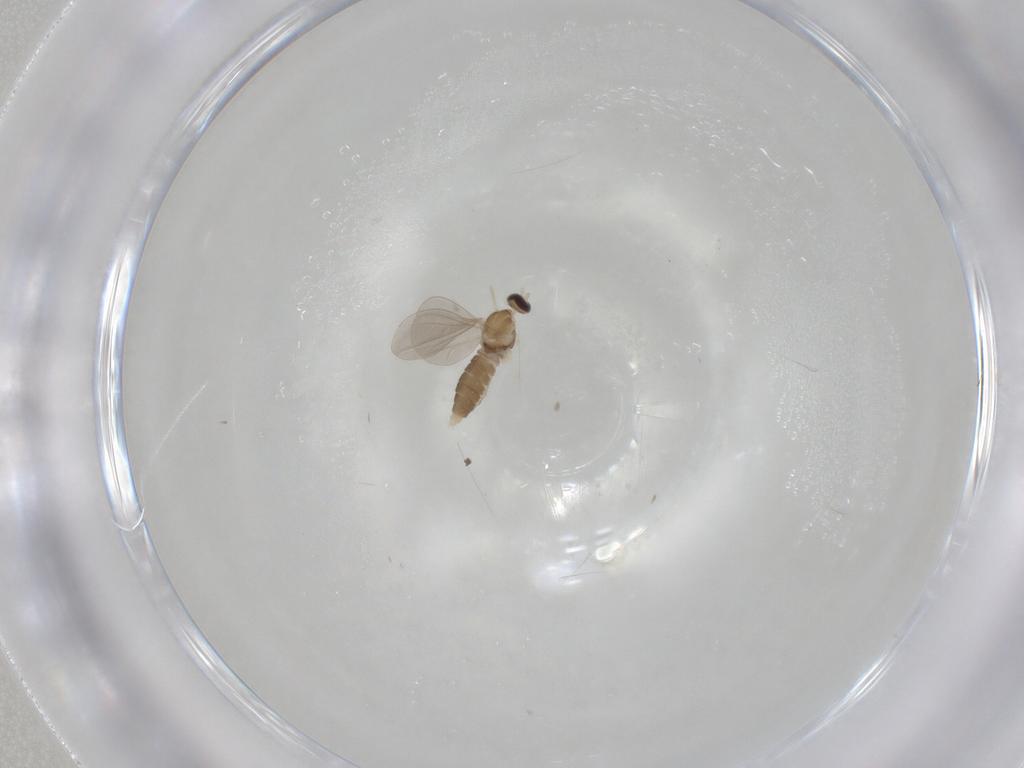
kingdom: Animalia
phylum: Arthropoda
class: Insecta
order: Diptera
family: Cecidomyiidae
